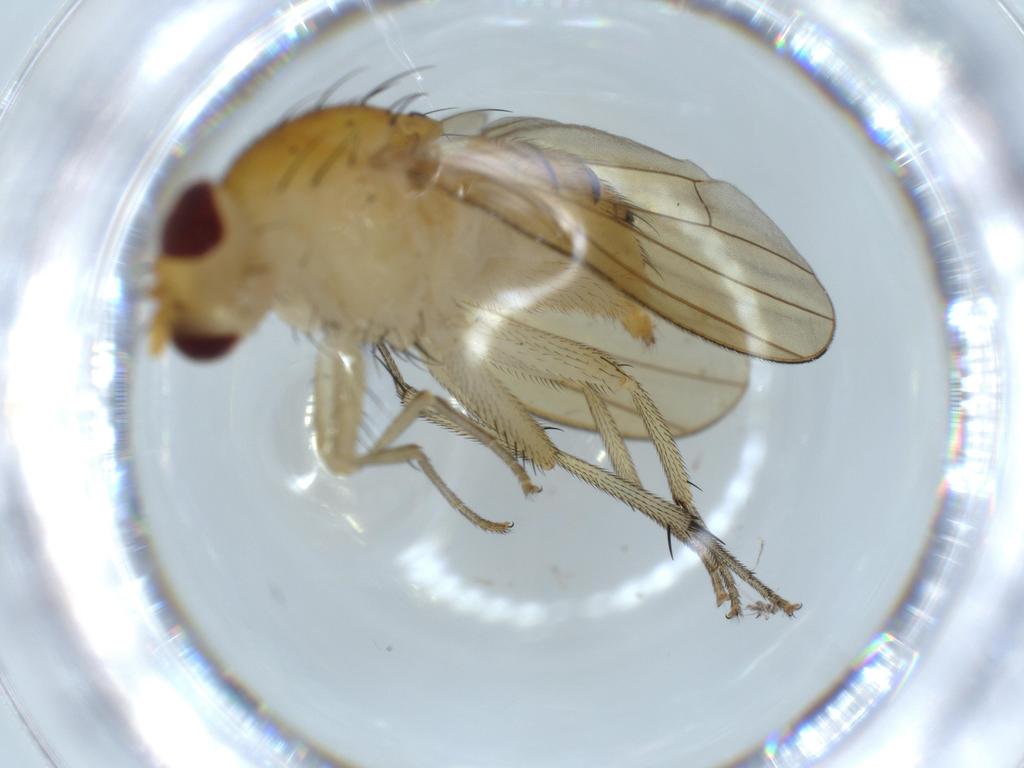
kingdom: Animalia
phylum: Arthropoda
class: Insecta
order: Diptera
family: Cecidomyiidae
